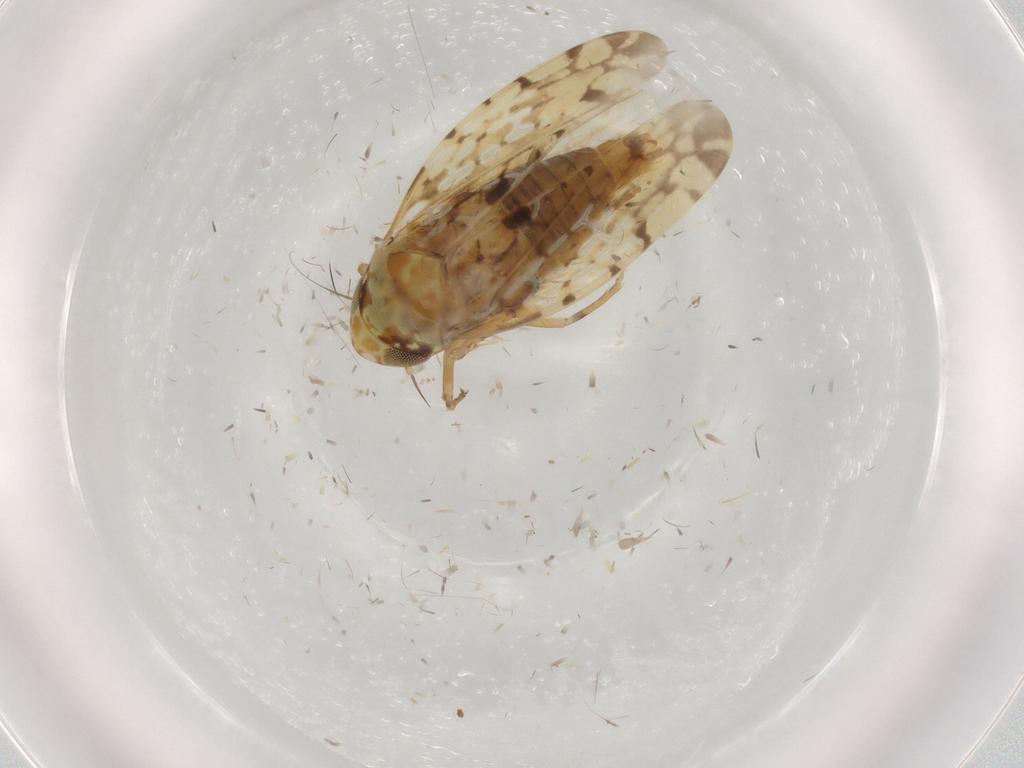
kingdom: Animalia
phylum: Arthropoda
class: Insecta
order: Hemiptera
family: Cicadellidae
